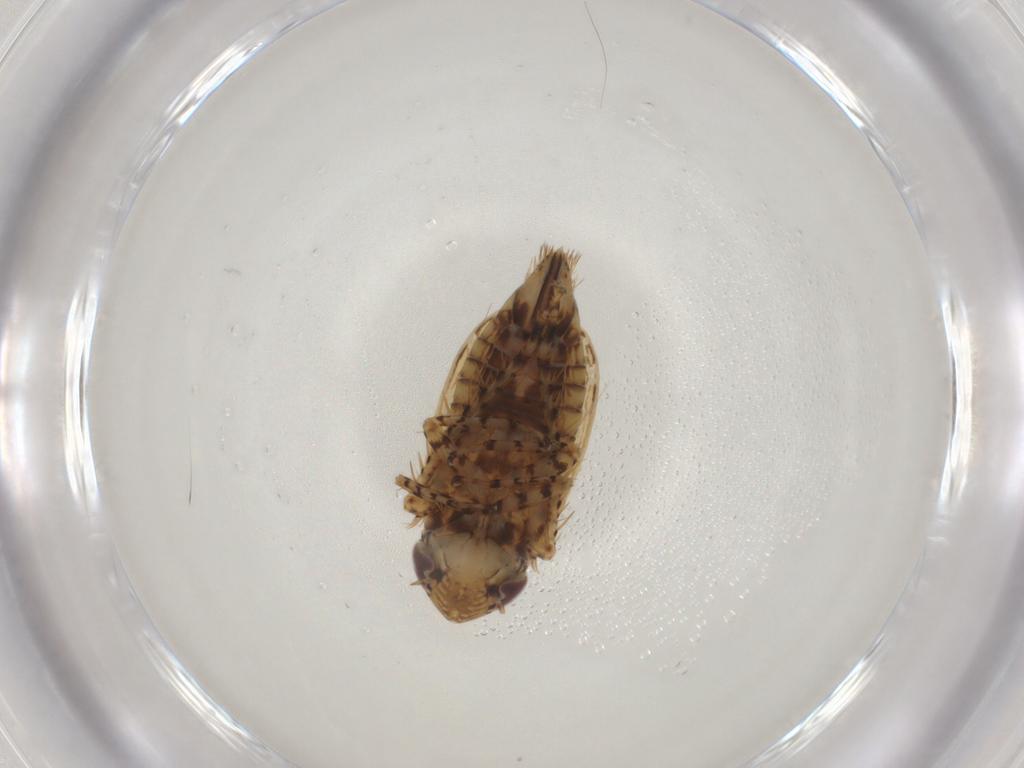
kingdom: Animalia
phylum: Arthropoda
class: Insecta
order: Hemiptera
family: Cicadellidae
